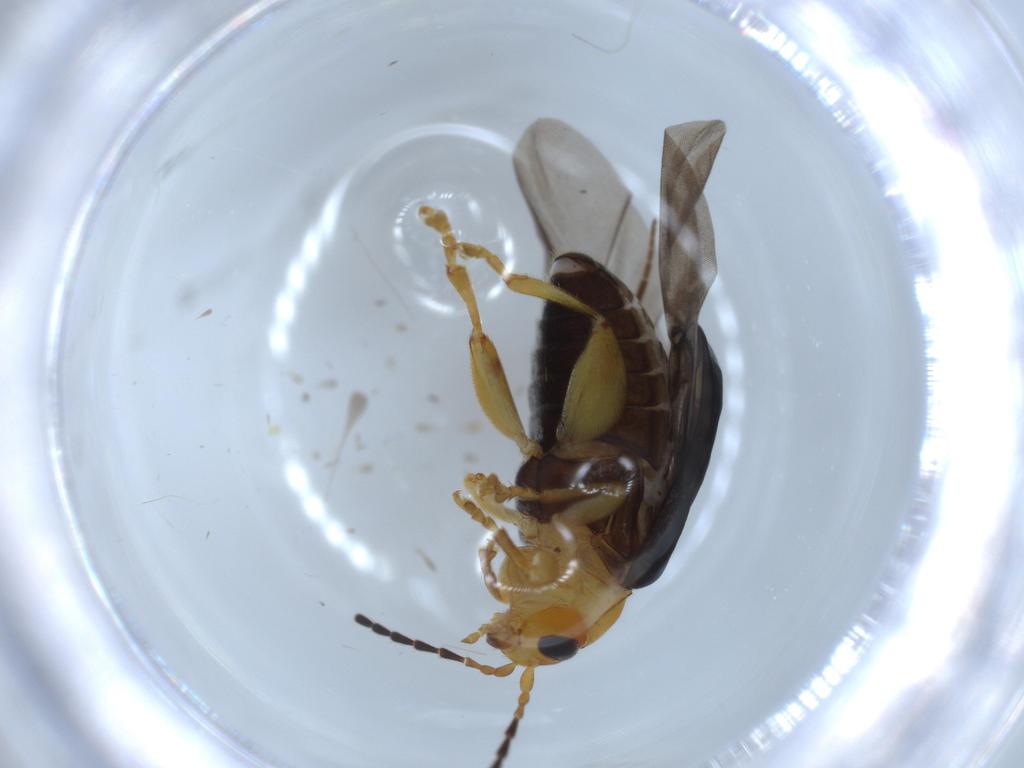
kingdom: Animalia
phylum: Arthropoda
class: Insecta
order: Coleoptera
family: Chrysomelidae
